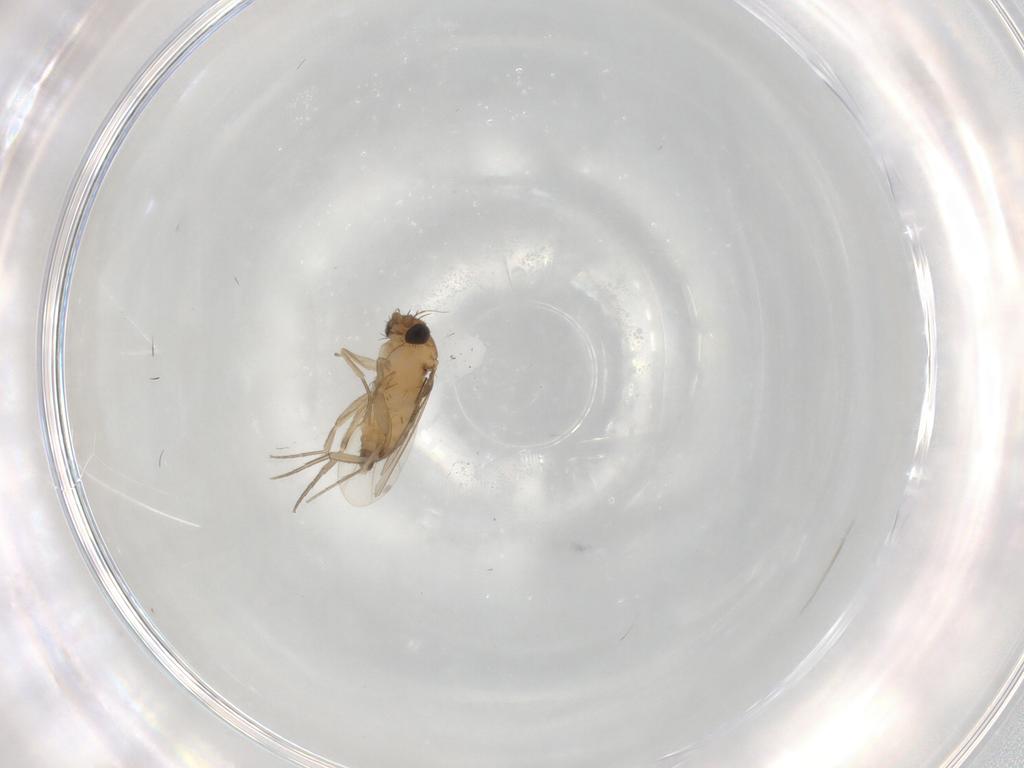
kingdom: Animalia
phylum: Arthropoda
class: Insecta
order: Diptera
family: Phoridae
